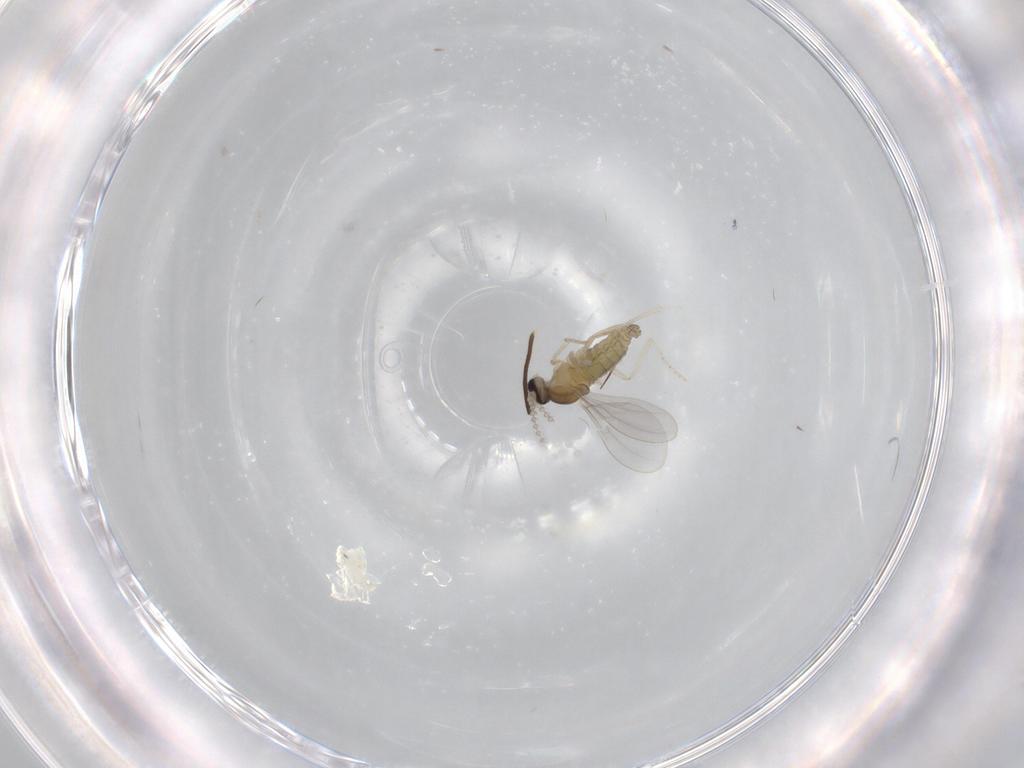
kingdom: Animalia
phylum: Arthropoda
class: Insecta
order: Diptera
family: Cecidomyiidae
